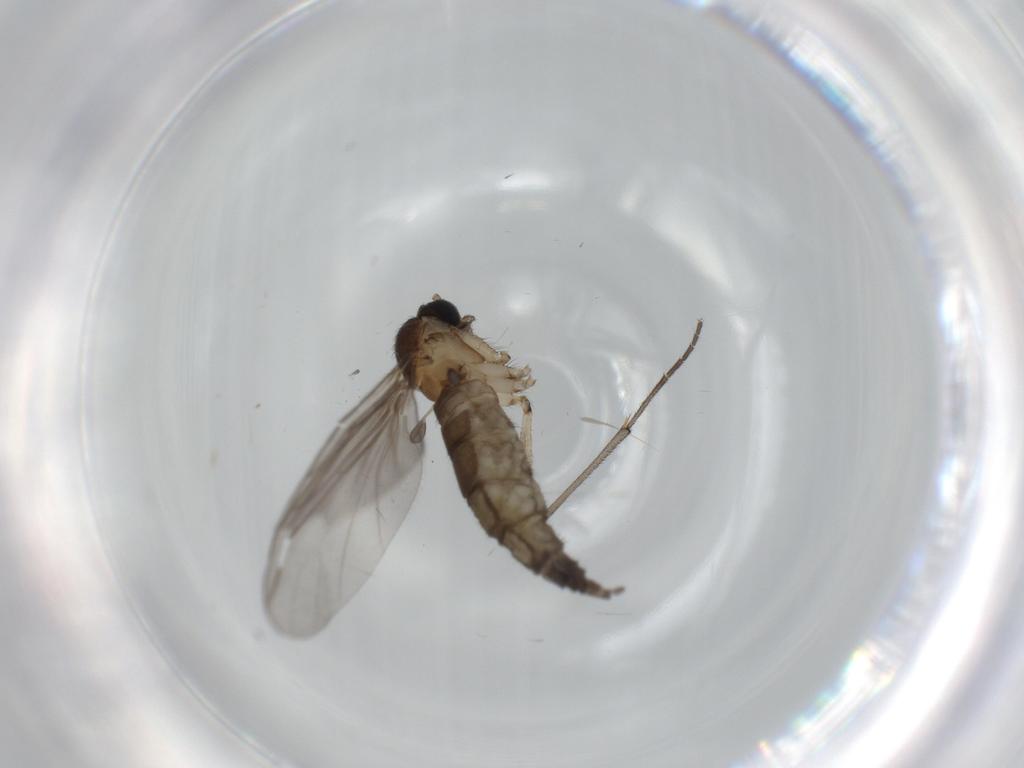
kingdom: Animalia
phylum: Arthropoda
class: Insecta
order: Diptera
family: Sciaridae
